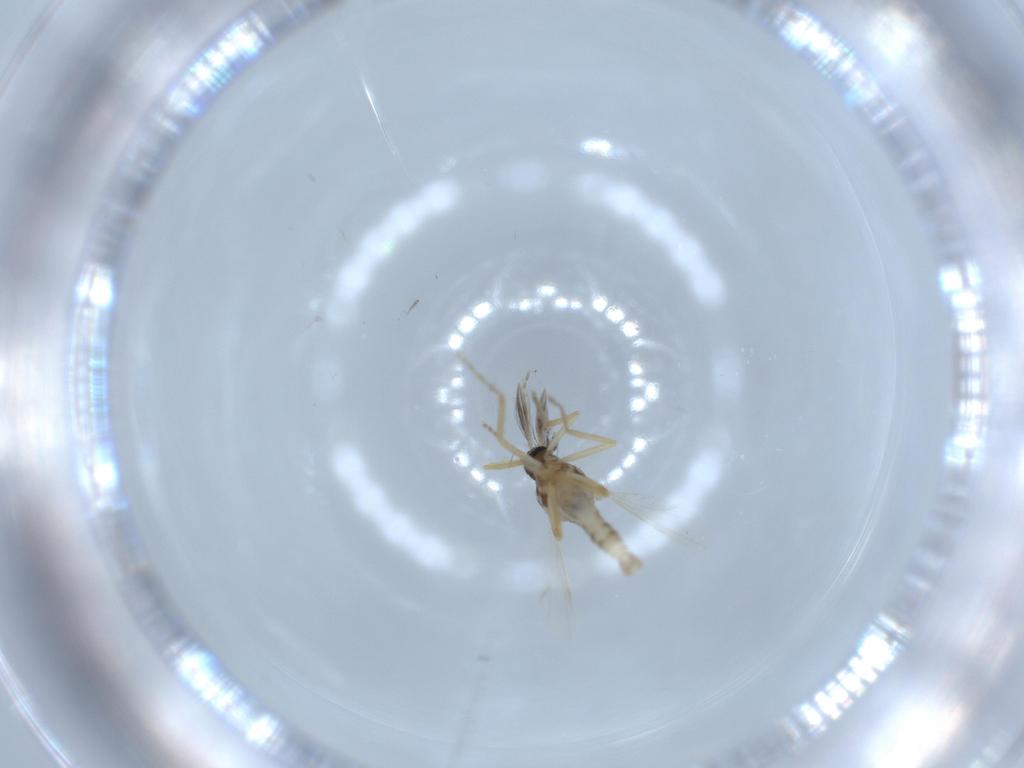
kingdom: Animalia
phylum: Arthropoda
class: Insecta
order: Diptera
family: Ceratopogonidae
